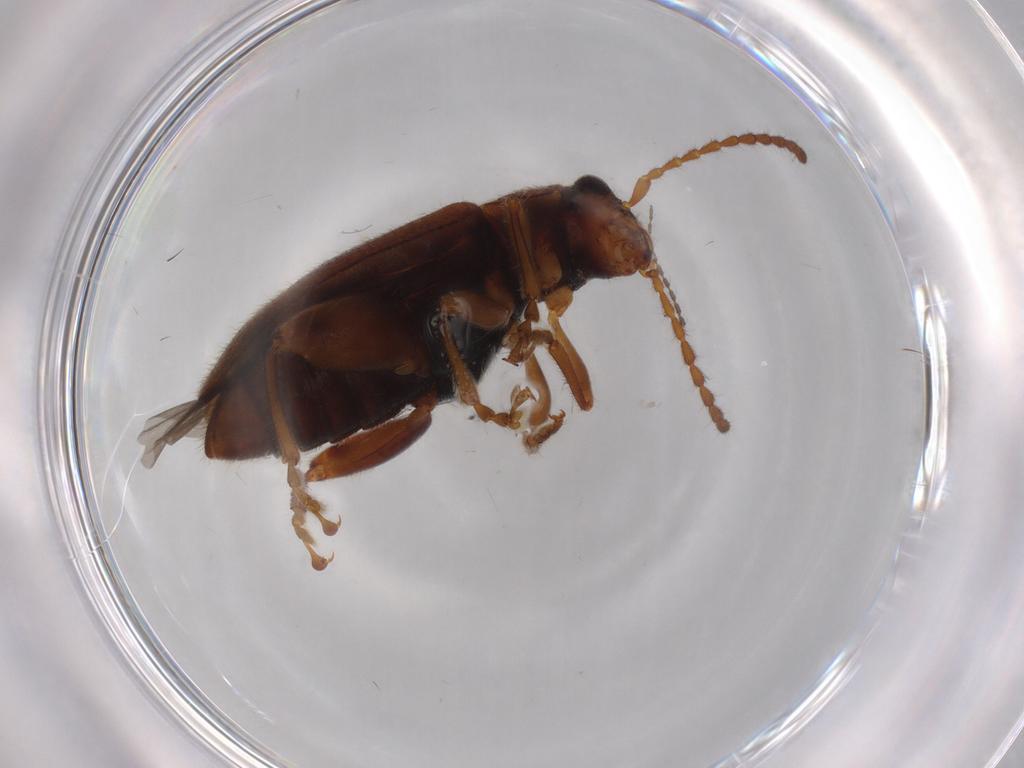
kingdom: Animalia
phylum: Arthropoda
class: Insecta
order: Coleoptera
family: Chrysomelidae
